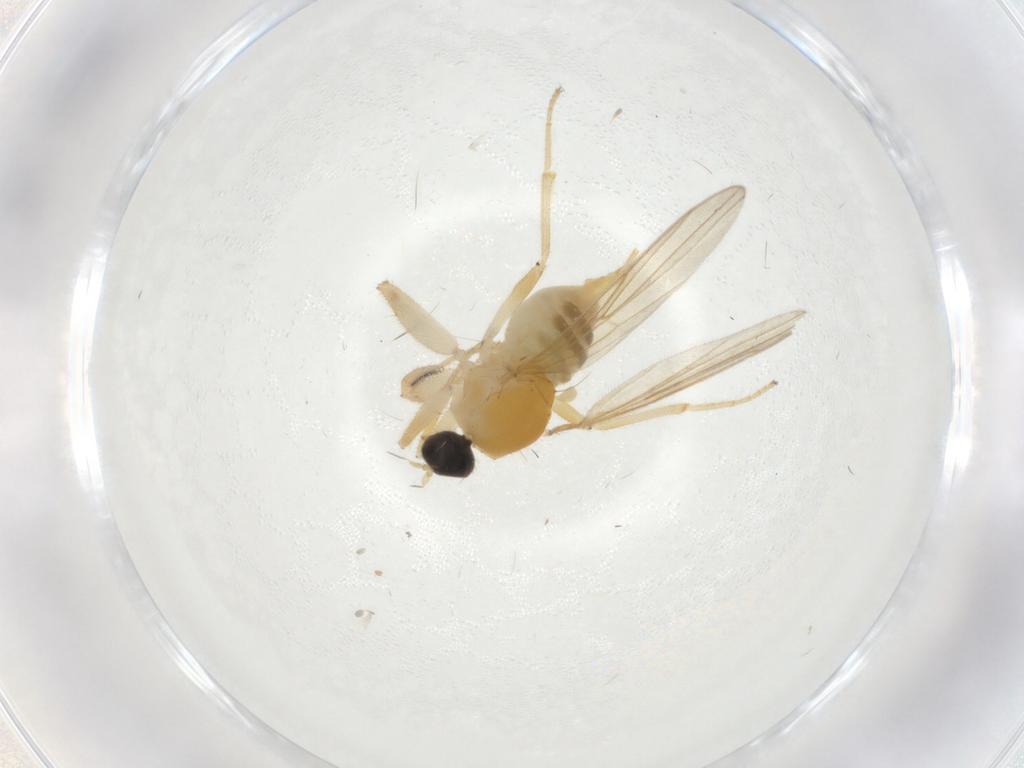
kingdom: Animalia
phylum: Arthropoda
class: Insecta
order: Diptera
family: Hybotidae
